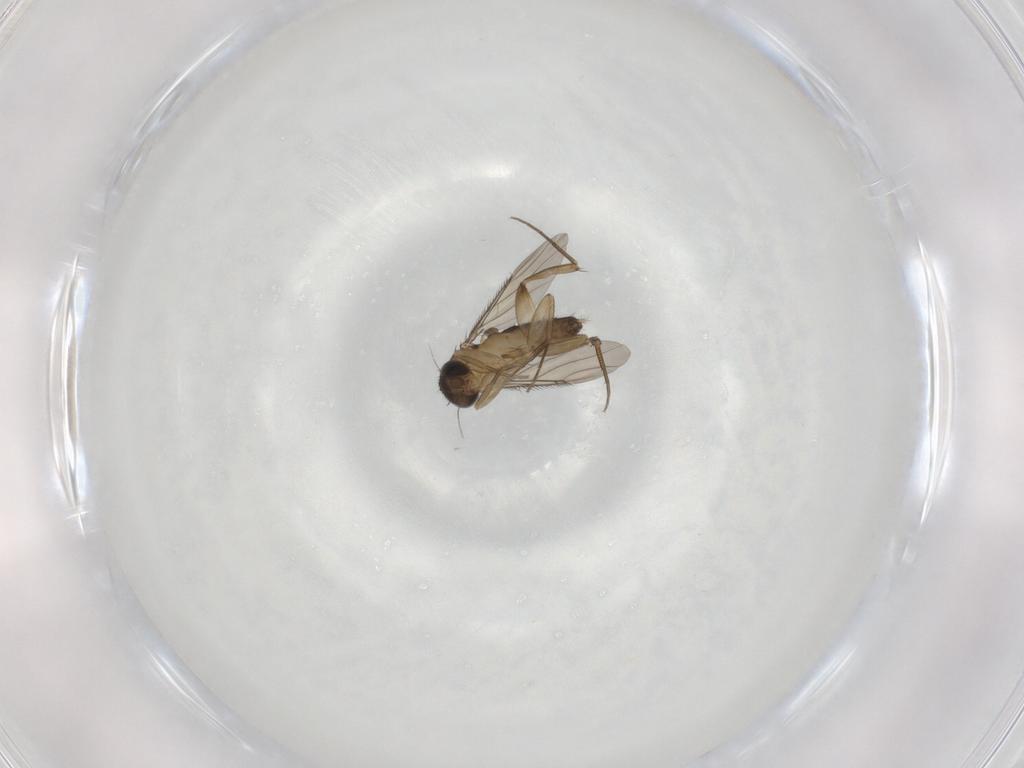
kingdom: Animalia
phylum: Arthropoda
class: Insecta
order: Diptera
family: Phoridae
